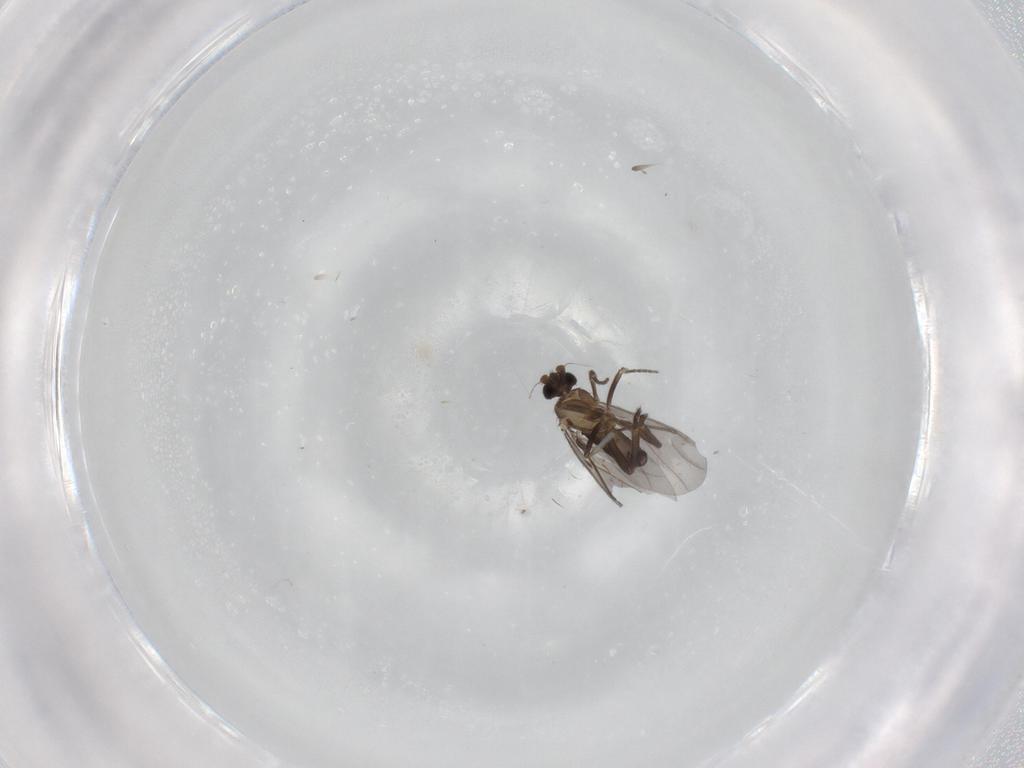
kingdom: Animalia
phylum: Arthropoda
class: Insecta
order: Diptera
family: Phoridae
